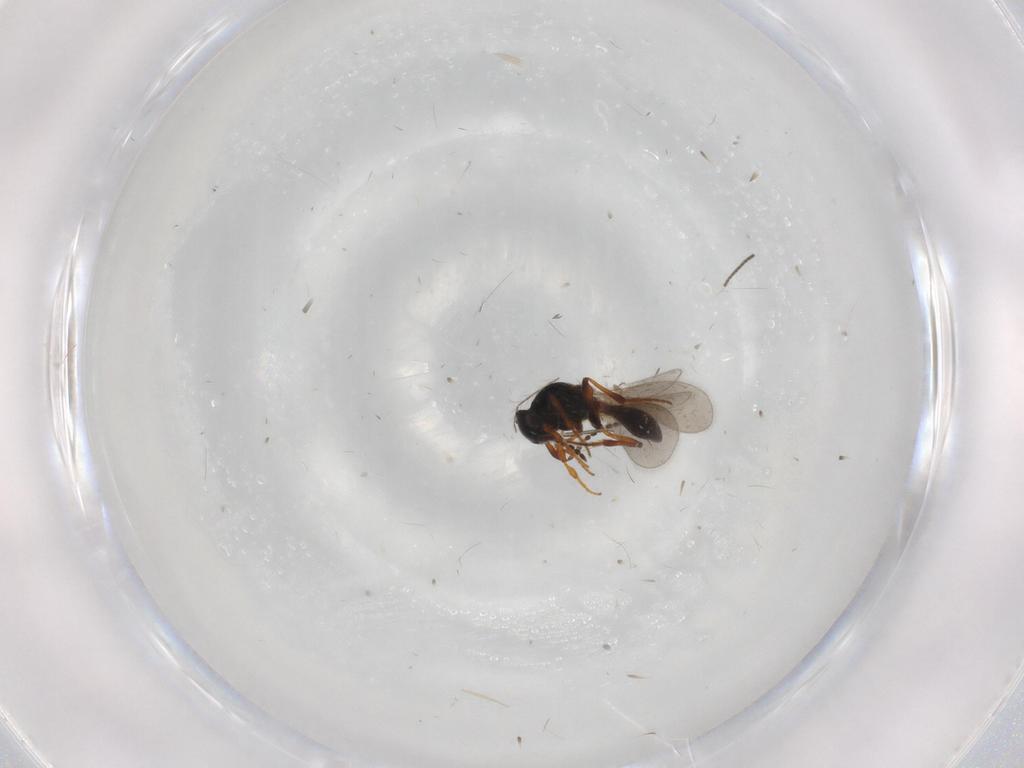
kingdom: Animalia
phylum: Arthropoda
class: Insecta
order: Hymenoptera
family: Platygastridae
